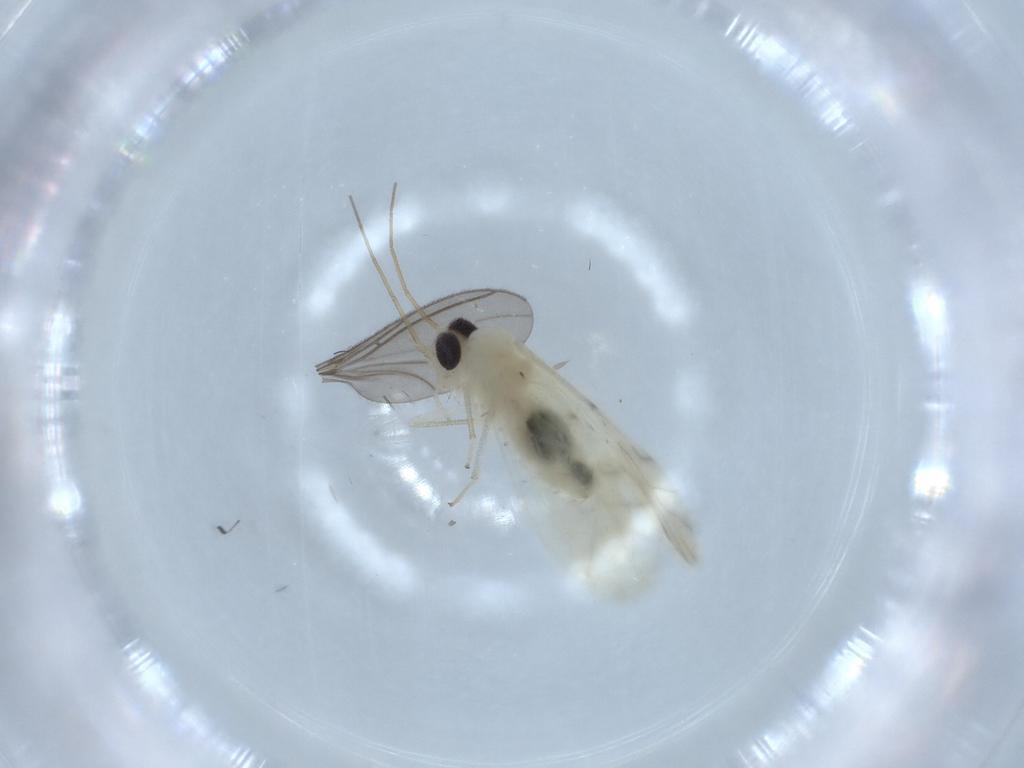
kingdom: Animalia
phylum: Arthropoda
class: Insecta
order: Psocodea
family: Caeciliusidae
